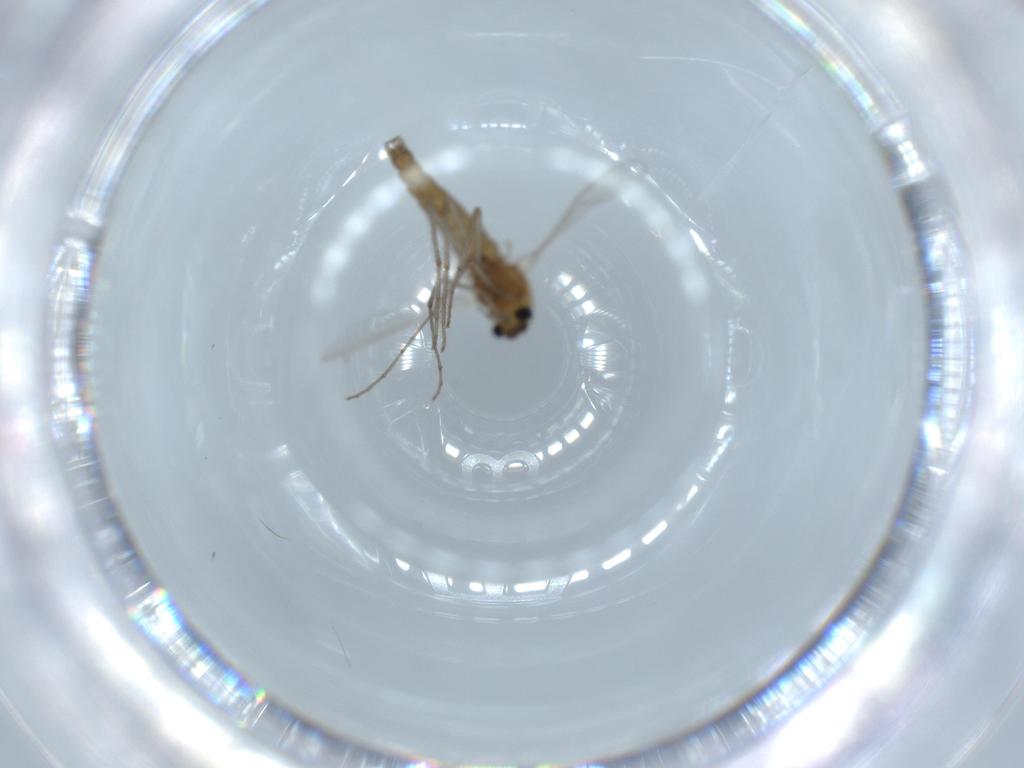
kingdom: Animalia
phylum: Arthropoda
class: Insecta
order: Diptera
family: Chironomidae
